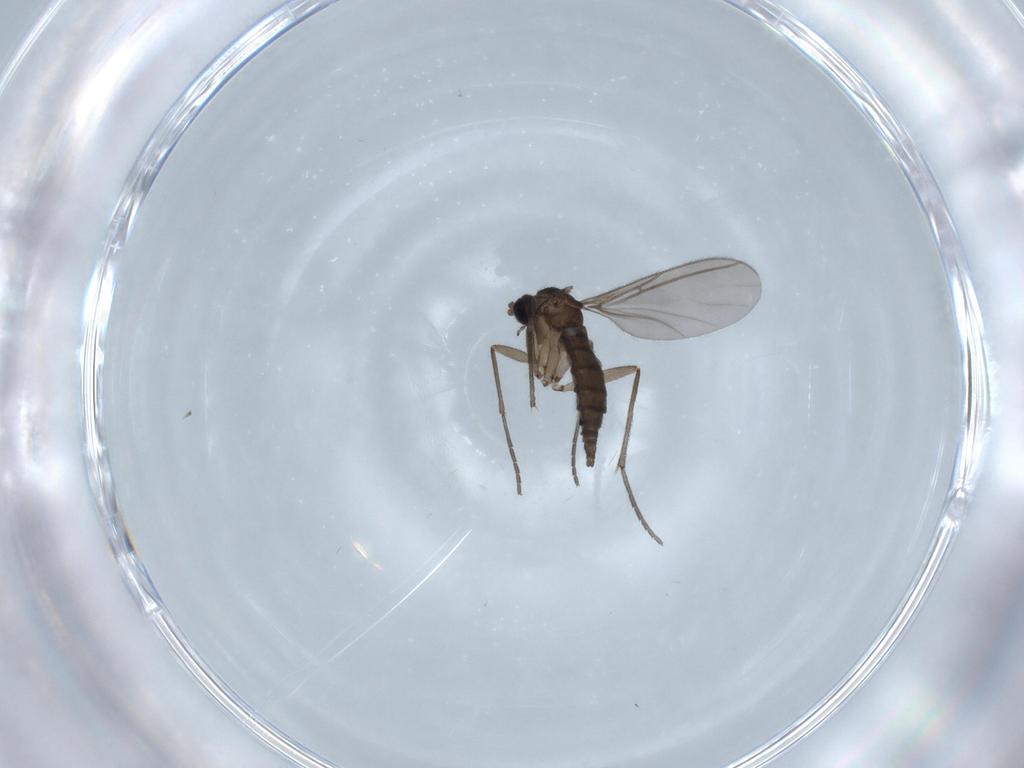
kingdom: Animalia
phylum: Arthropoda
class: Insecta
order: Diptera
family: Sciaridae
